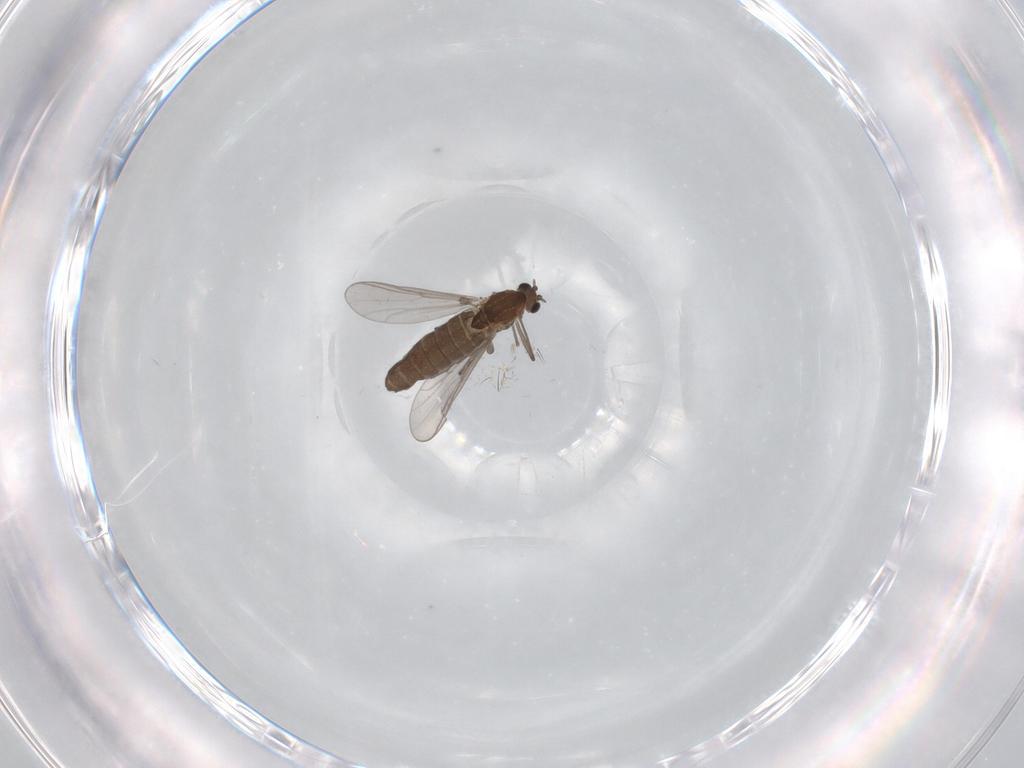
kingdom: Animalia
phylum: Arthropoda
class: Insecta
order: Diptera
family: Chironomidae
